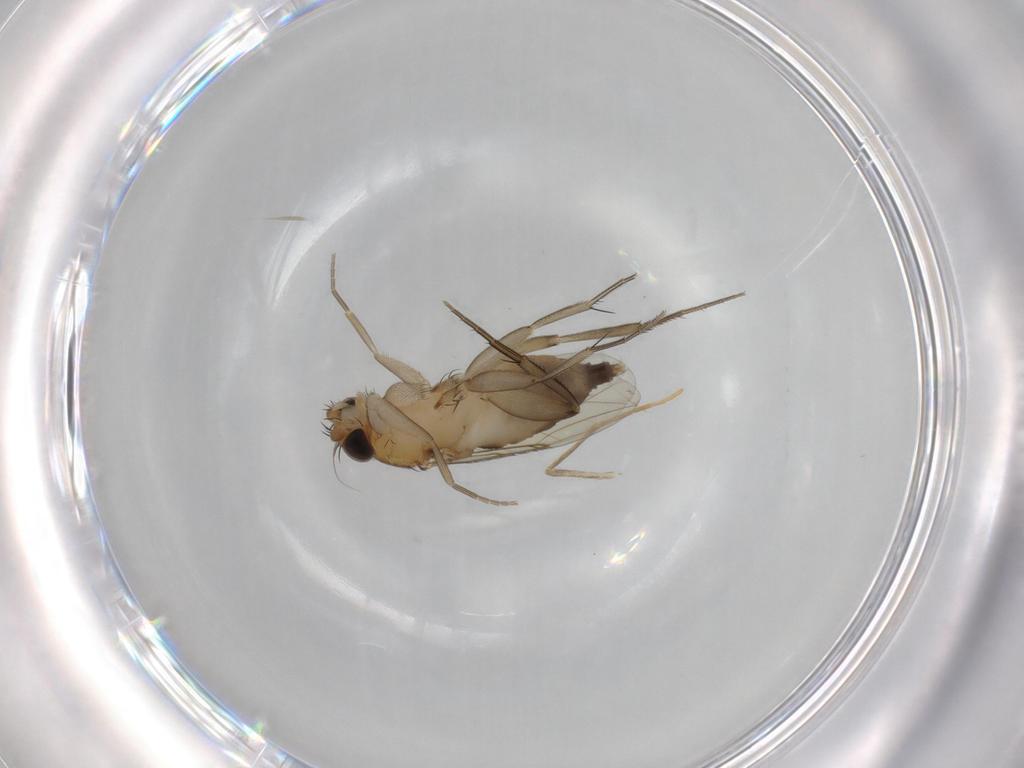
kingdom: Animalia
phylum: Arthropoda
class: Insecta
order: Diptera
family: Phoridae
